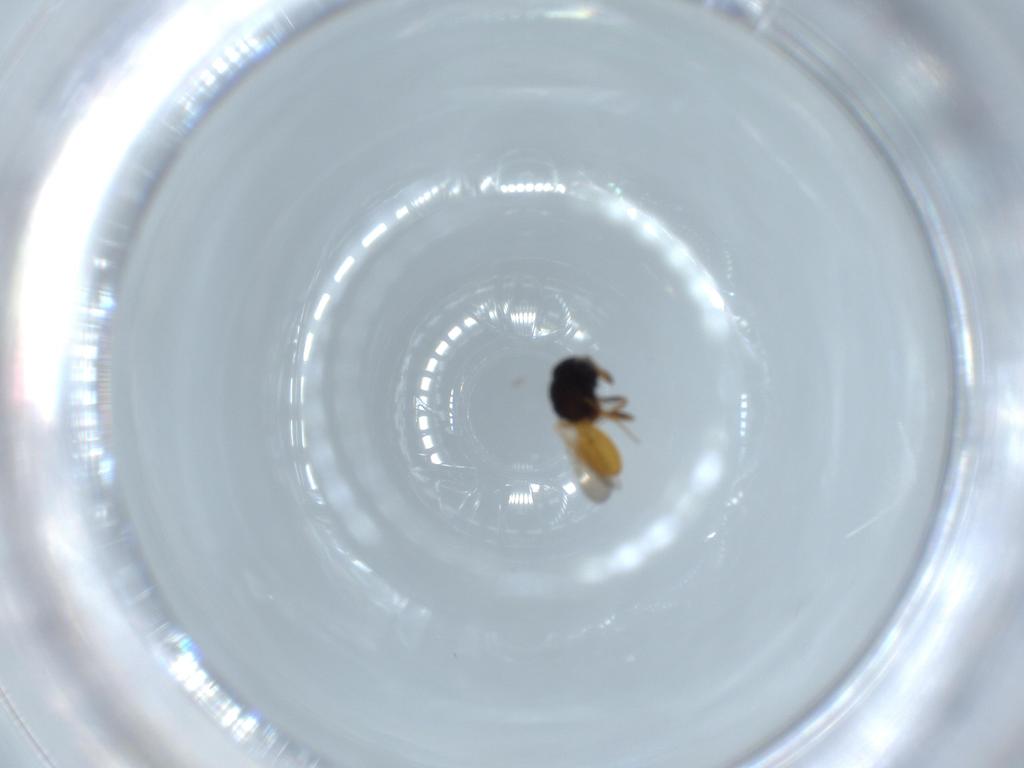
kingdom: Animalia
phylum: Arthropoda
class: Insecta
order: Hymenoptera
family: Scelionidae
